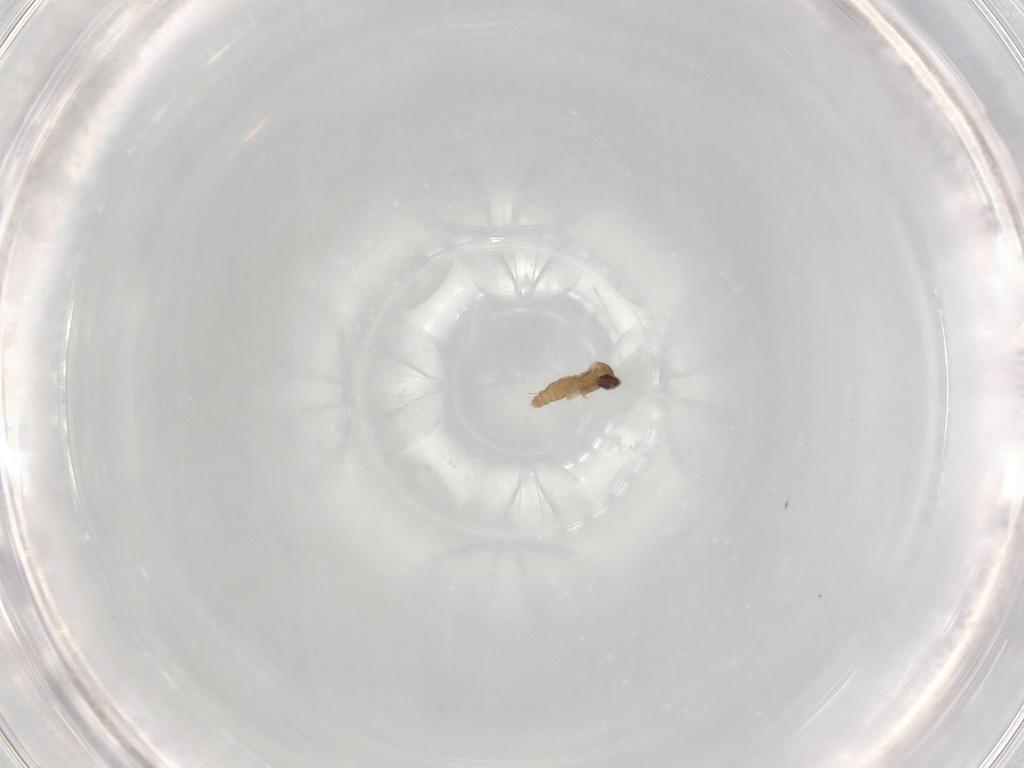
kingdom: Animalia
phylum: Arthropoda
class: Insecta
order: Diptera
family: Cecidomyiidae
